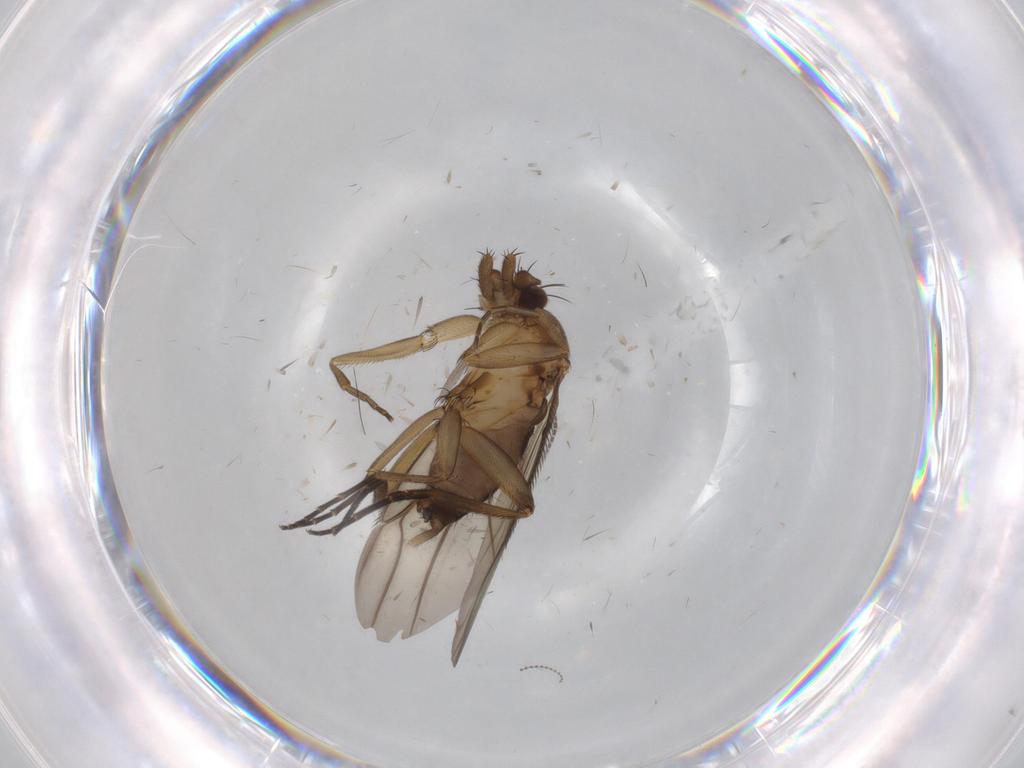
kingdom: Animalia
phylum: Arthropoda
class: Insecta
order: Diptera
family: Phoridae
